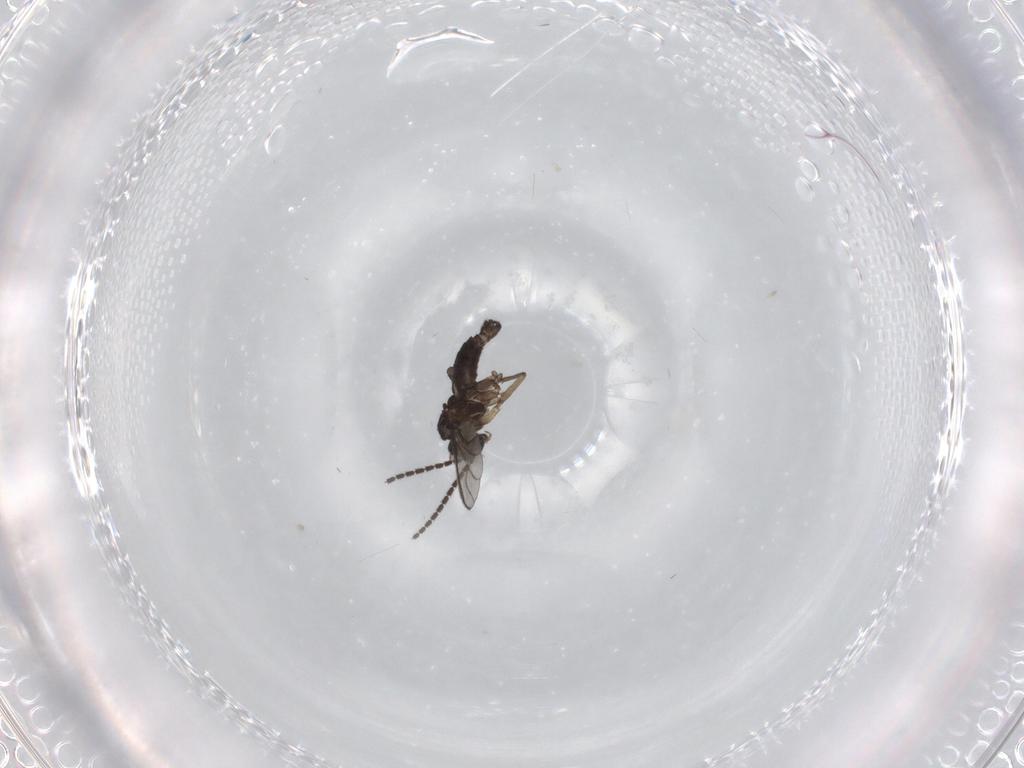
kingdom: Animalia
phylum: Arthropoda
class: Insecta
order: Diptera
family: Sciaridae
